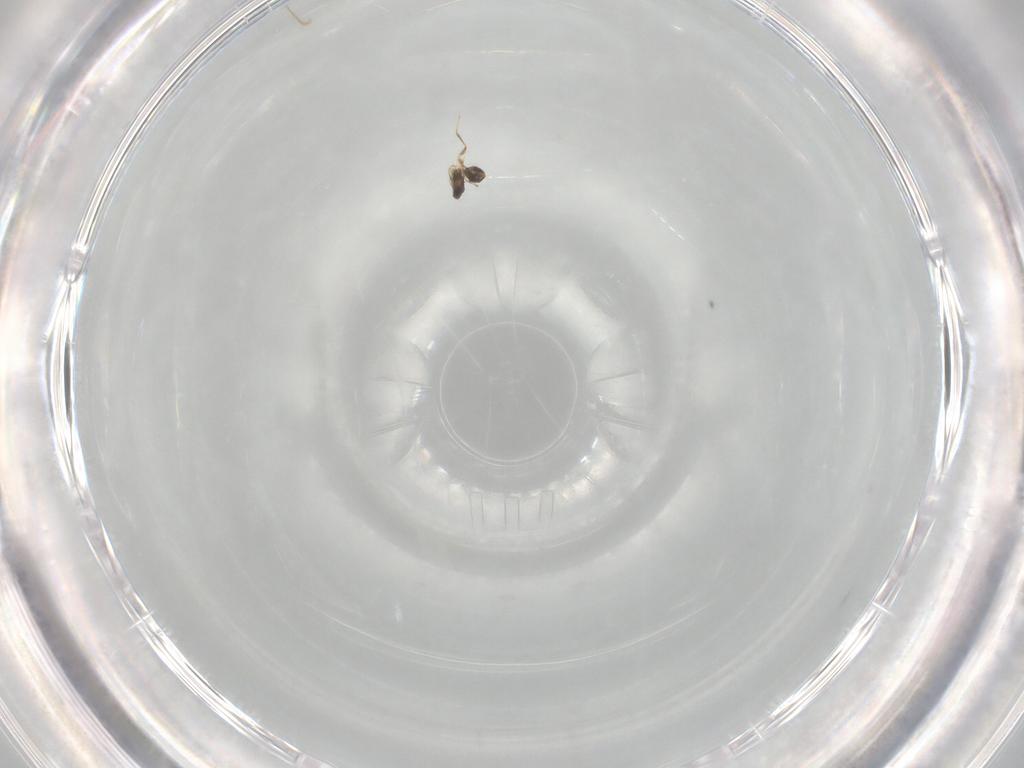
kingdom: Animalia
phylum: Arthropoda
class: Insecta
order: Hymenoptera
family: Mymaridae
